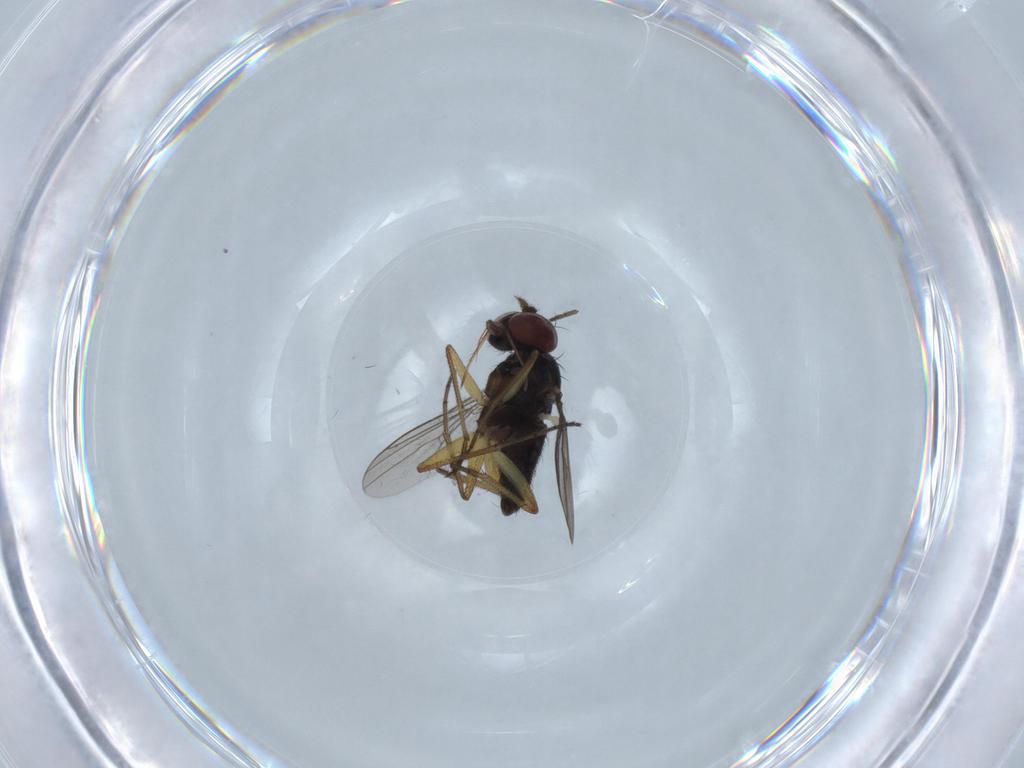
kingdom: Animalia
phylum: Arthropoda
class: Insecta
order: Diptera
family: Dolichopodidae
